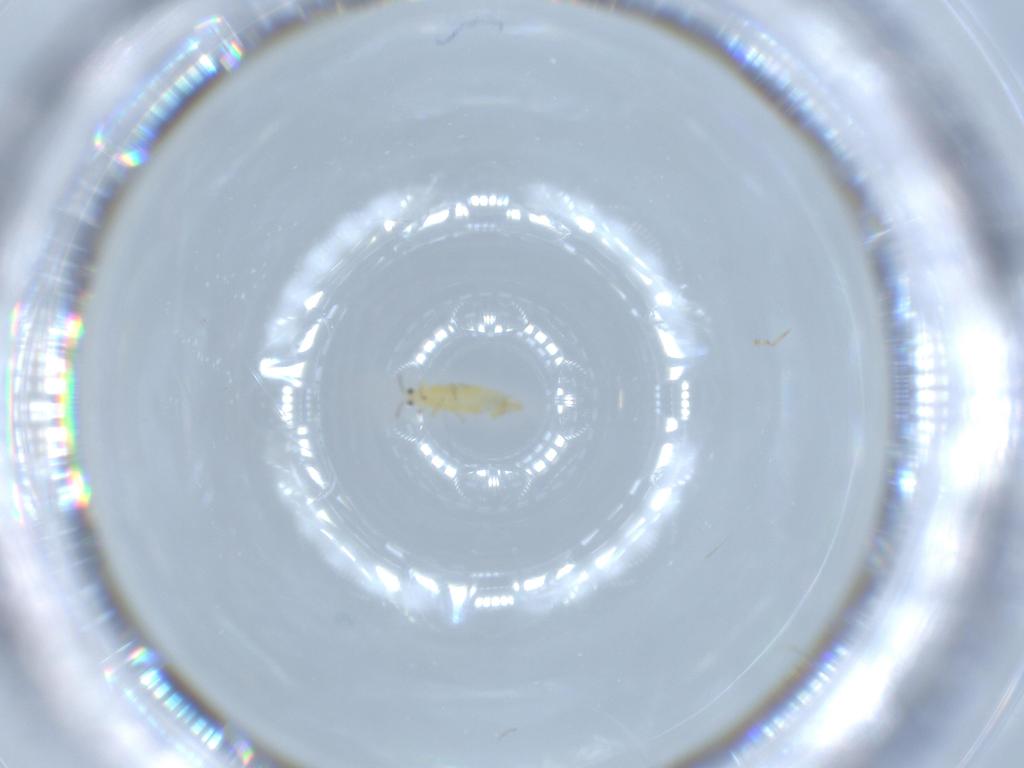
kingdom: Animalia
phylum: Arthropoda
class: Insecta
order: Thysanoptera
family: Thripidae
